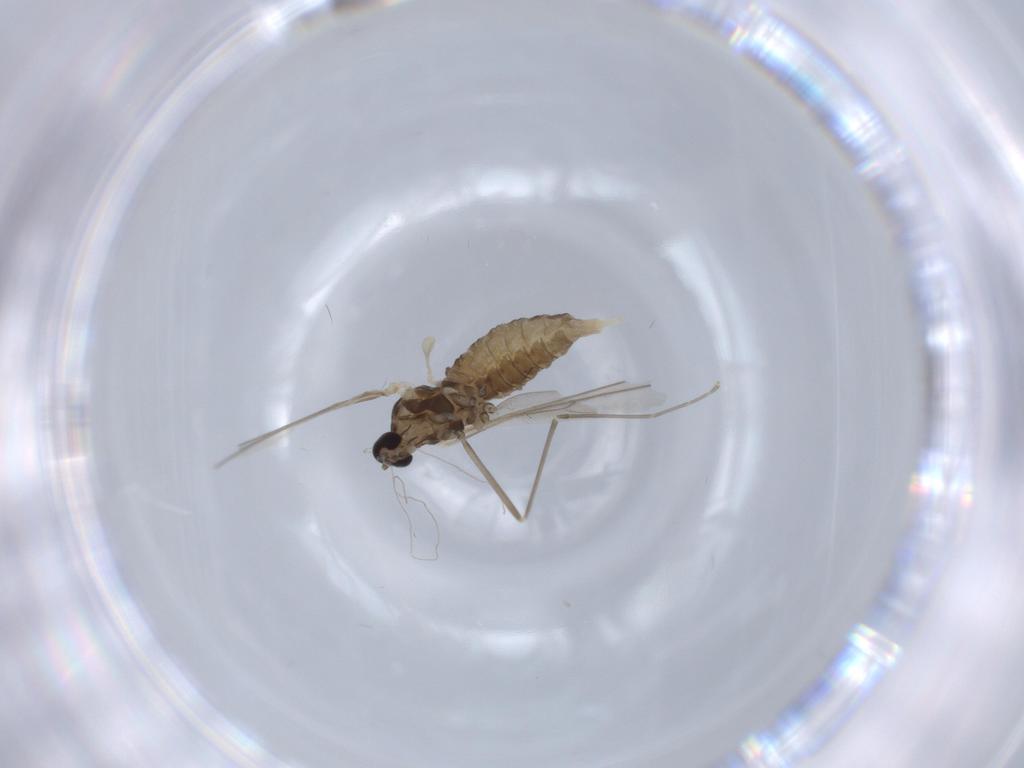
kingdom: Animalia
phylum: Arthropoda
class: Insecta
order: Diptera
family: Cecidomyiidae
